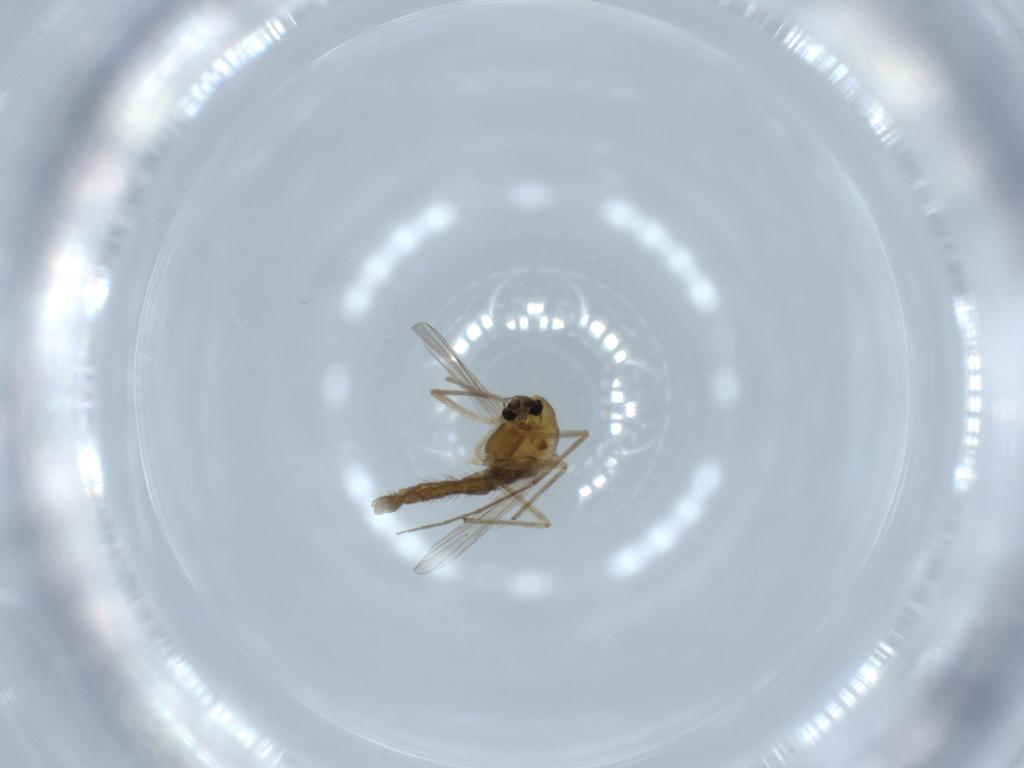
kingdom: Animalia
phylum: Arthropoda
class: Insecta
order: Diptera
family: Chironomidae
